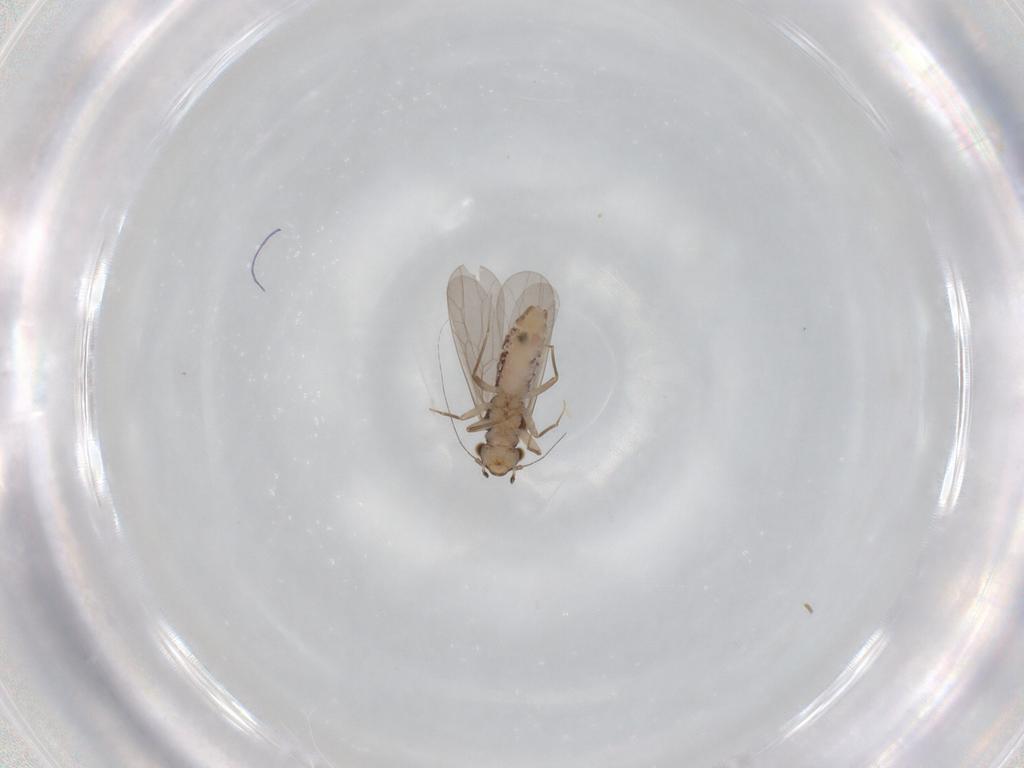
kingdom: Animalia
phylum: Arthropoda
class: Insecta
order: Psocodea
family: Lepidopsocidae
